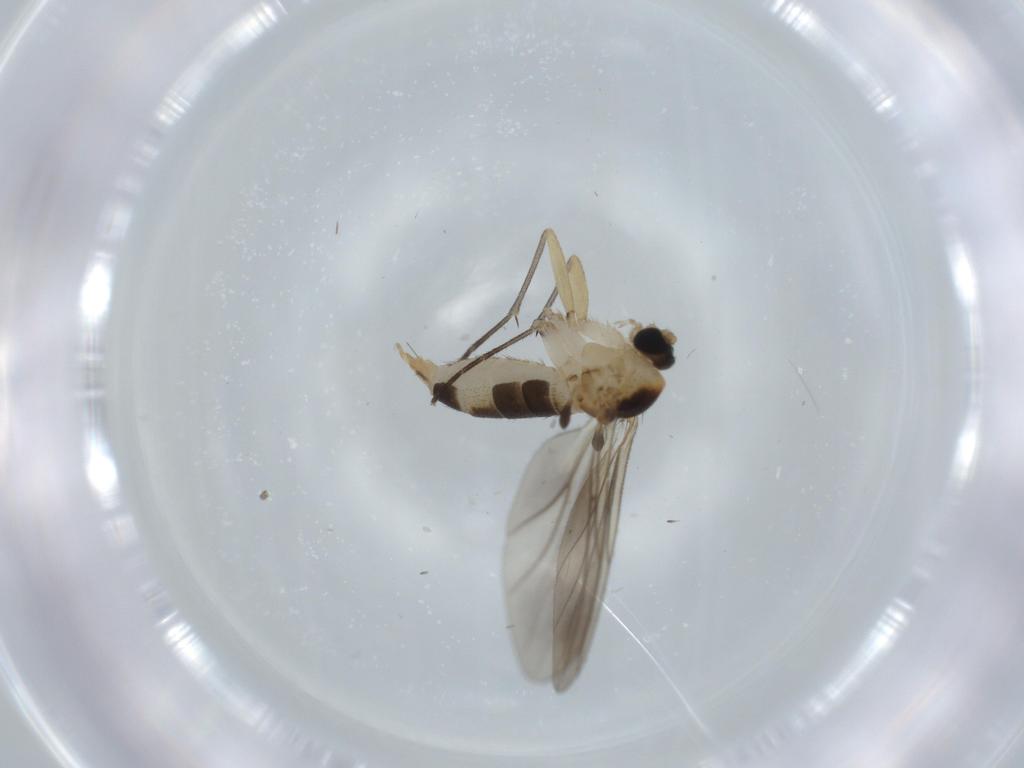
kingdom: Animalia
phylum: Arthropoda
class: Insecta
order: Diptera
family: Sciaridae
